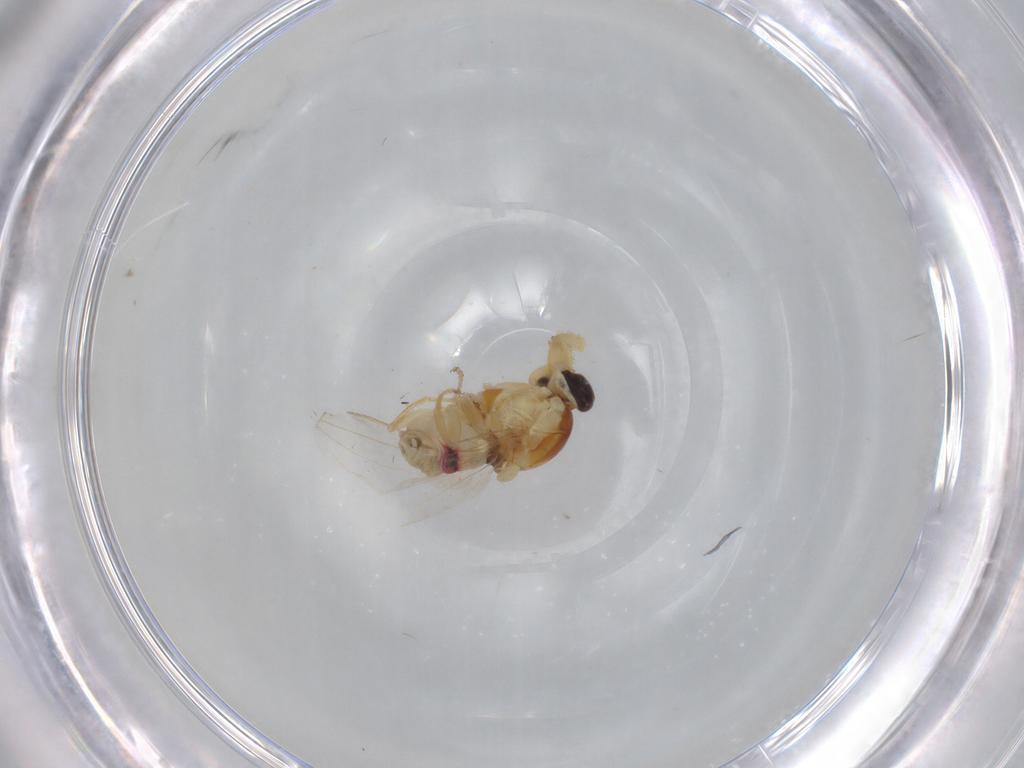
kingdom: Animalia
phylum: Arthropoda
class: Insecta
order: Diptera
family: Asteiidae
